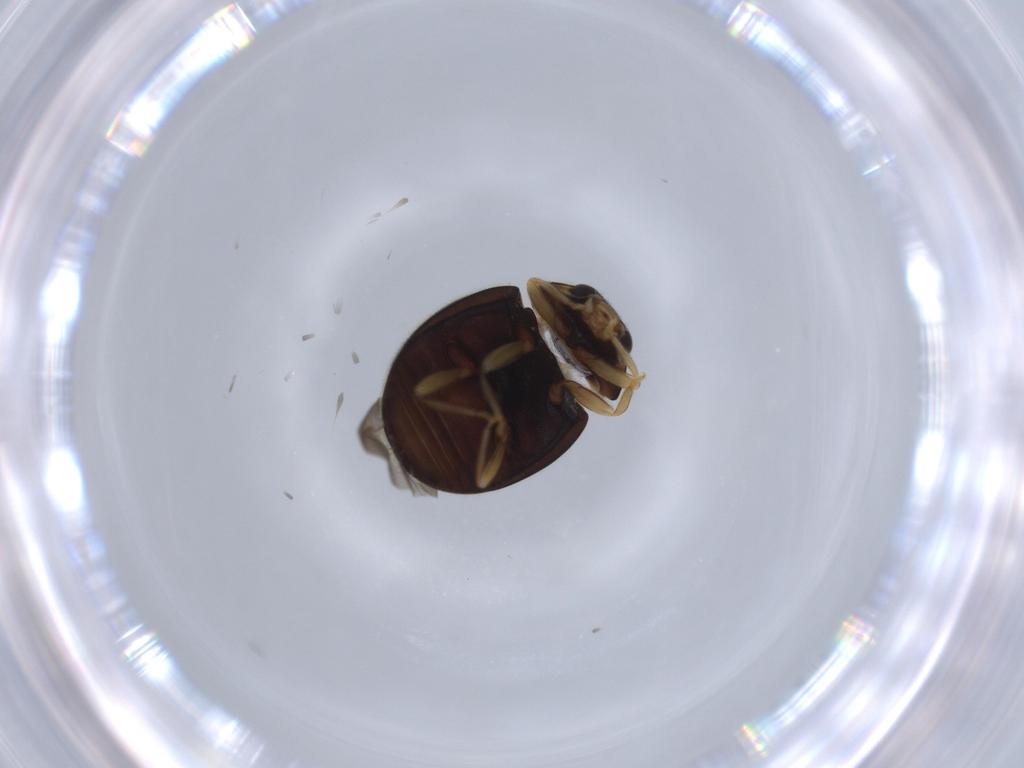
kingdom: Animalia
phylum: Arthropoda
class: Insecta
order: Coleoptera
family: Coccinellidae
